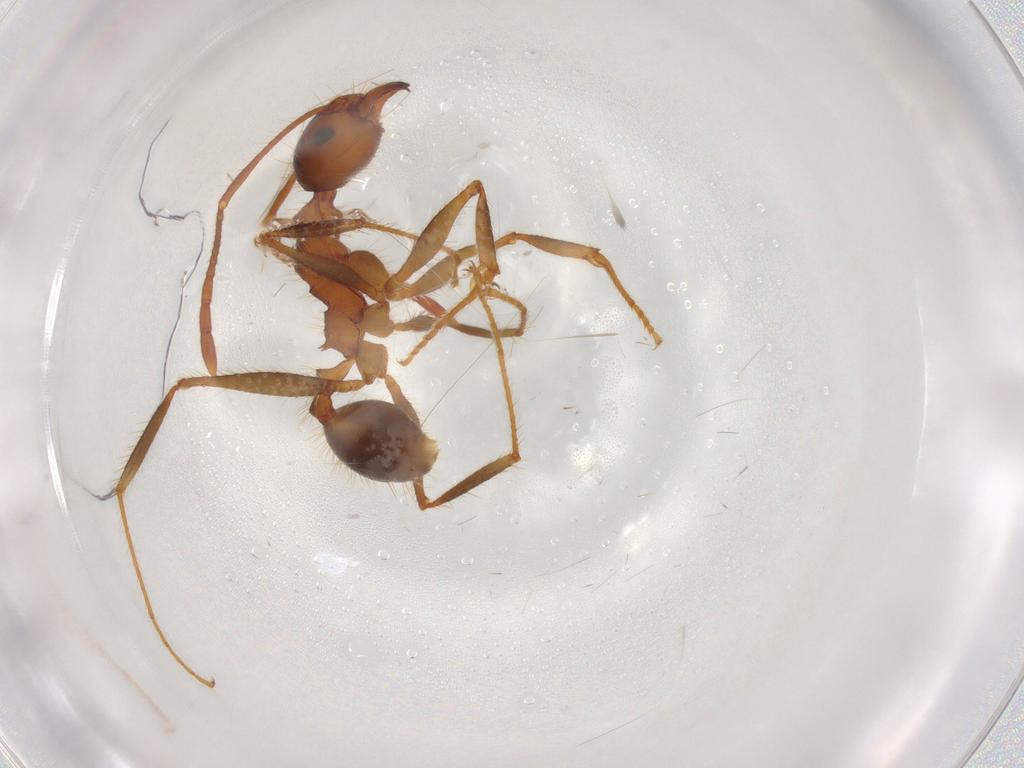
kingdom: Animalia
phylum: Arthropoda
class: Insecta
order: Hymenoptera
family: Formicidae
